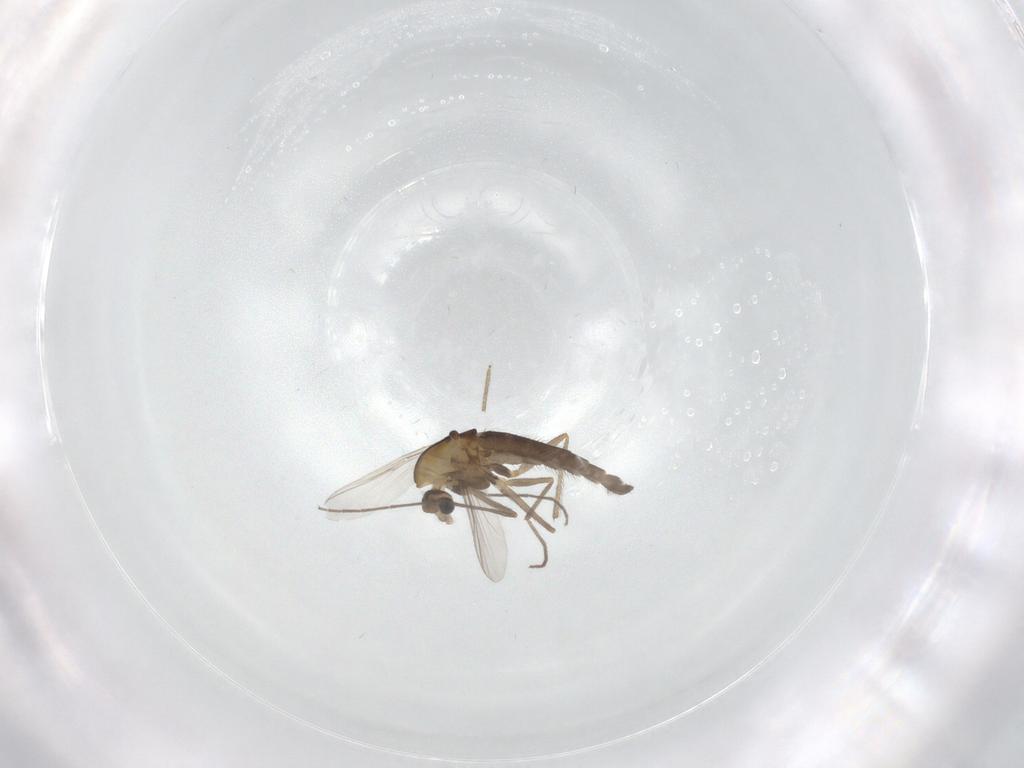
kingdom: Animalia
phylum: Arthropoda
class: Insecta
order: Diptera
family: Chironomidae
